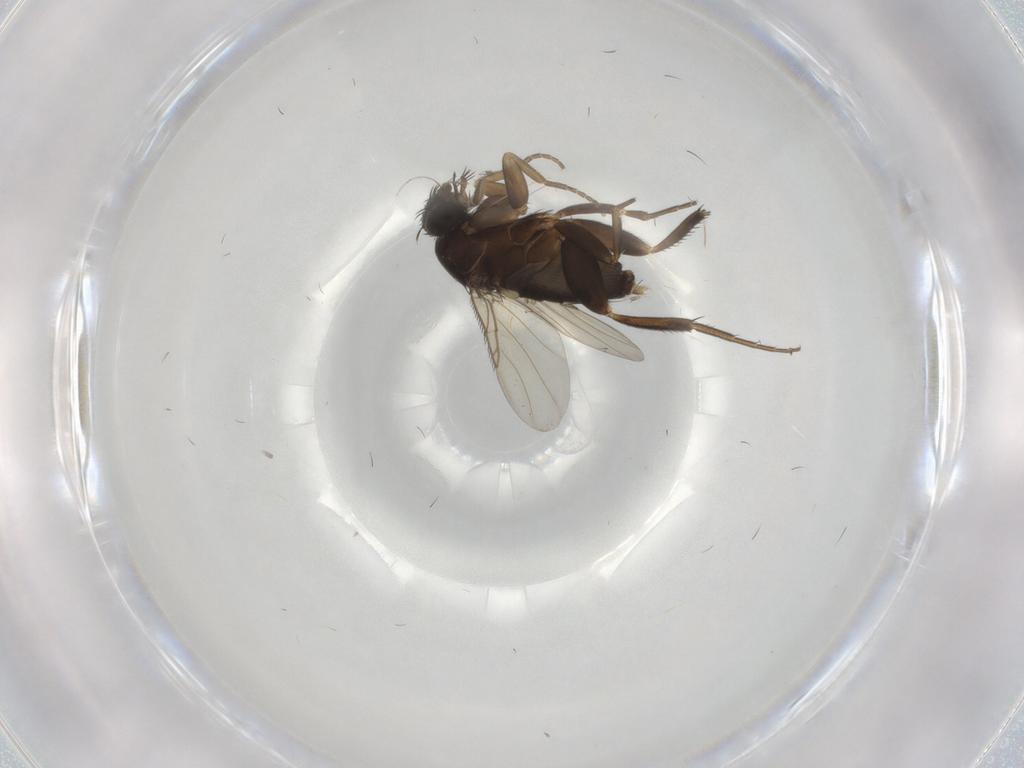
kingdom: Animalia
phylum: Arthropoda
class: Insecta
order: Diptera
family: Phoridae
